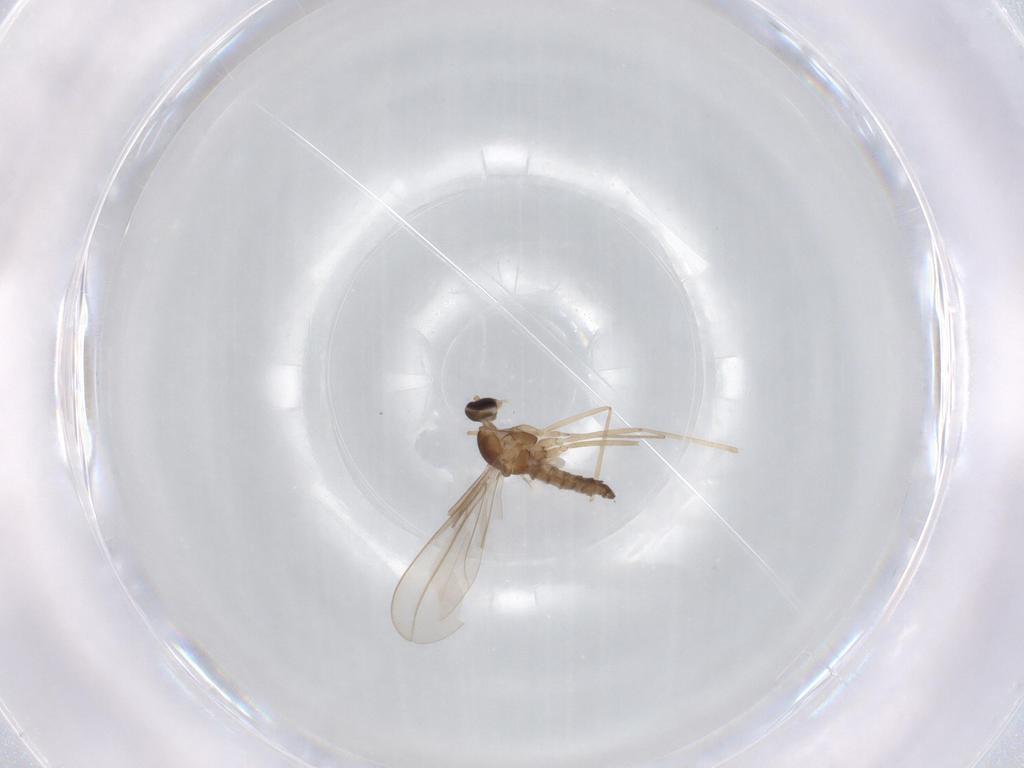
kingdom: Animalia
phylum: Arthropoda
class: Insecta
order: Diptera
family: Cecidomyiidae
